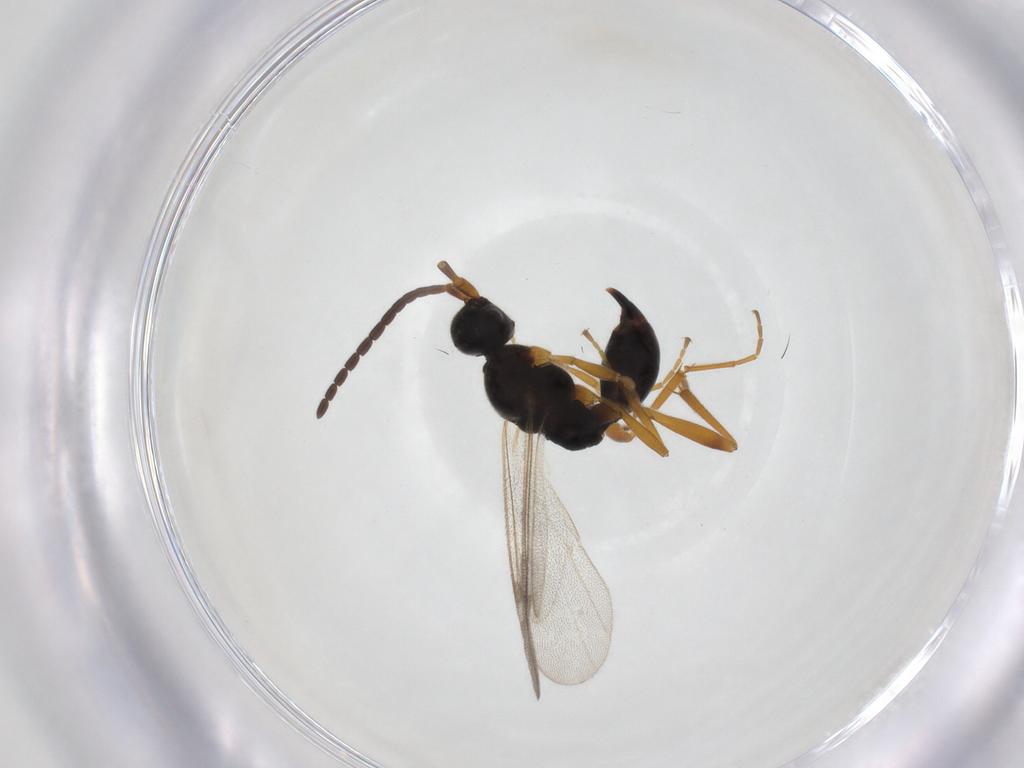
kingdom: Animalia
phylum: Arthropoda
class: Insecta
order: Hymenoptera
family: Proctotrupidae
